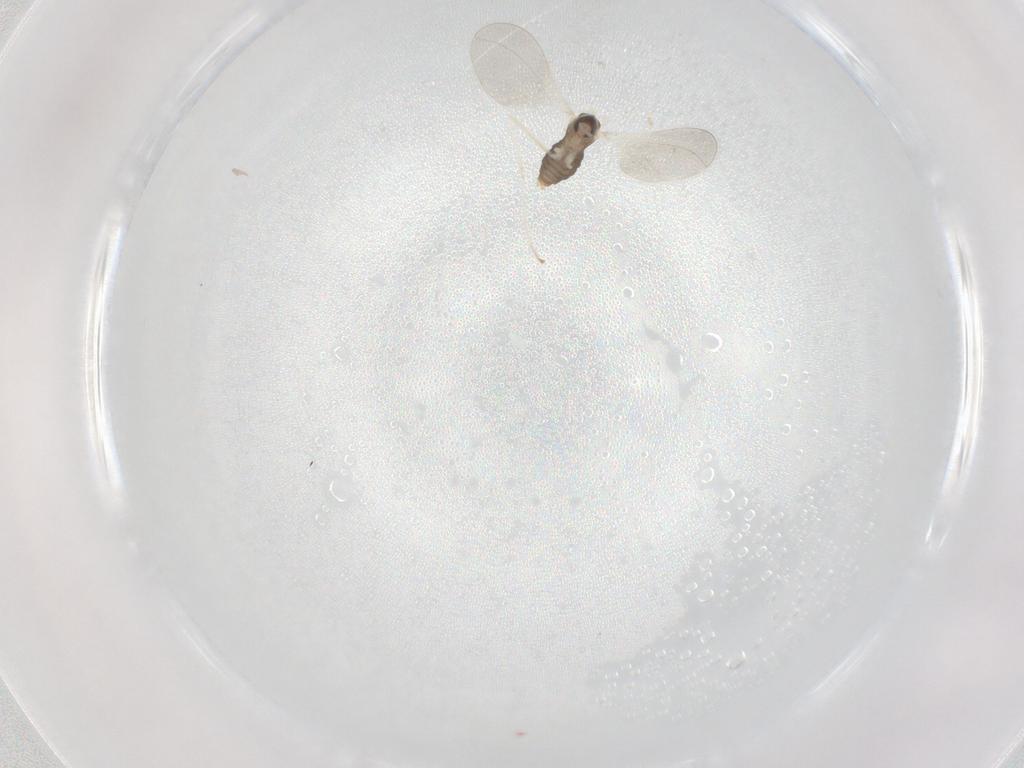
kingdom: Animalia
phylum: Arthropoda
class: Insecta
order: Diptera
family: Cecidomyiidae
